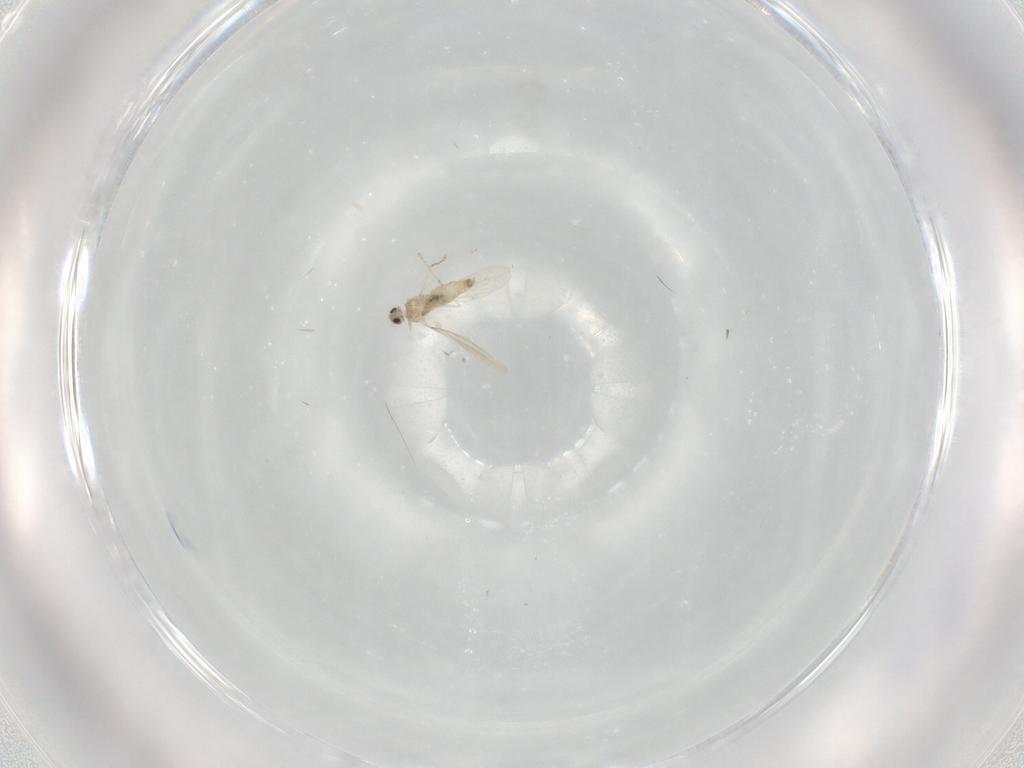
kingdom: Animalia
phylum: Arthropoda
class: Insecta
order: Diptera
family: Cecidomyiidae
